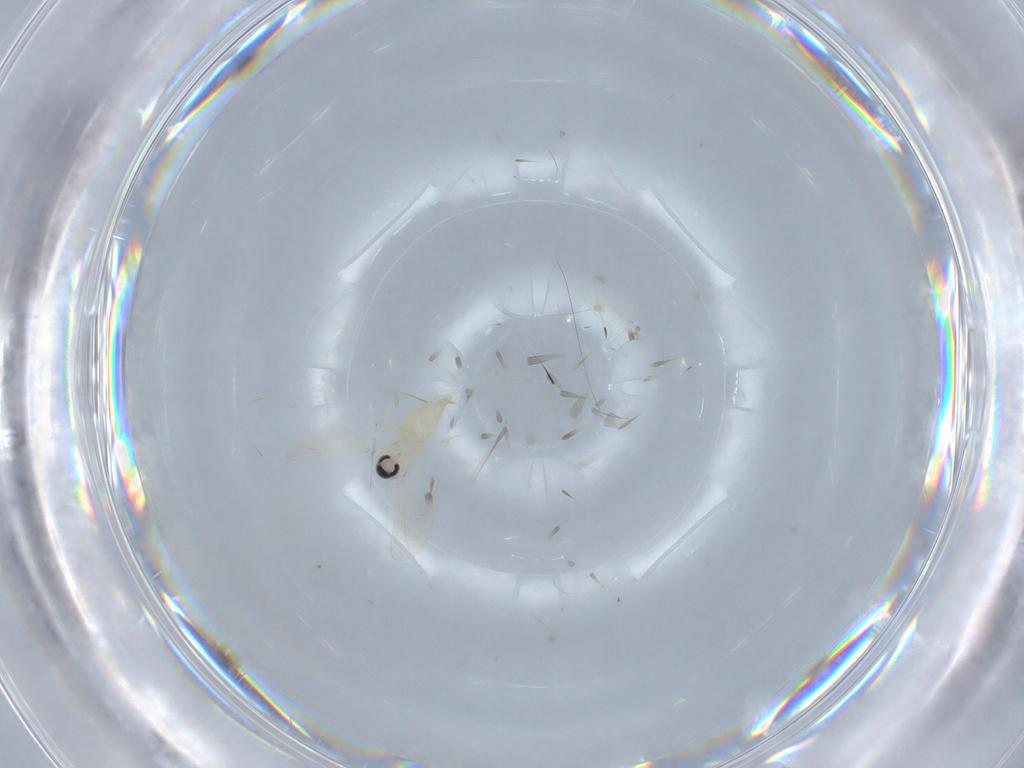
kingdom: Animalia
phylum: Arthropoda
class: Insecta
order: Diptera
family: Cecidomyiidae
